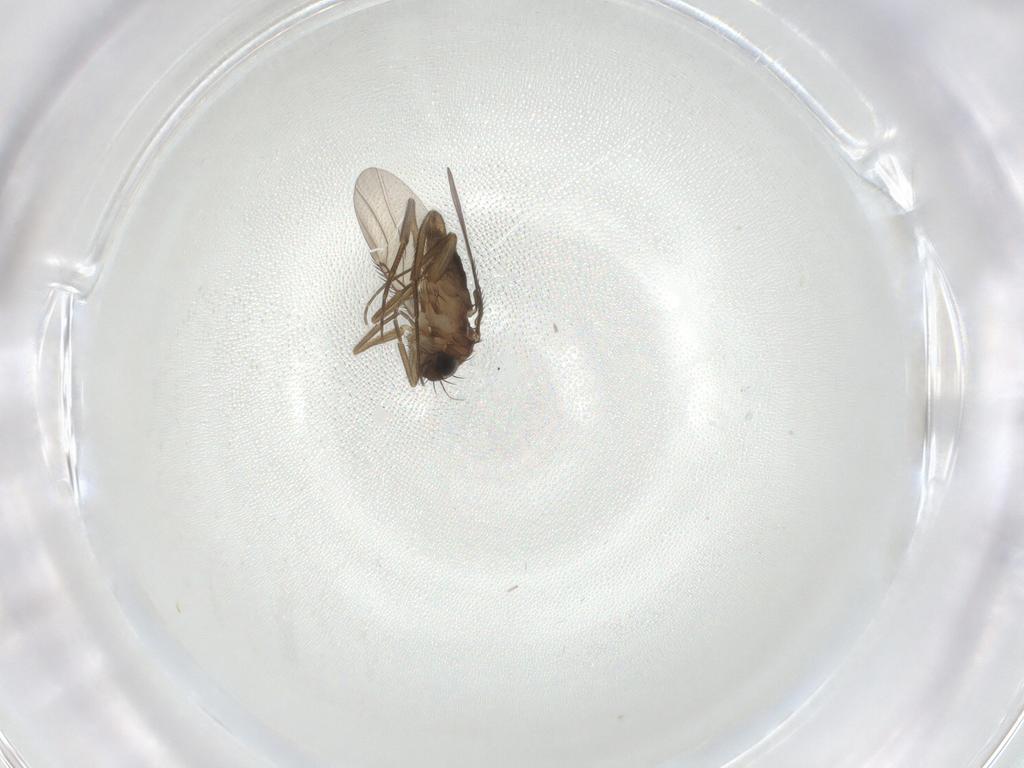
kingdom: Animalia
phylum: Arthropoda
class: Insecta
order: Diptera
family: Phoridae
